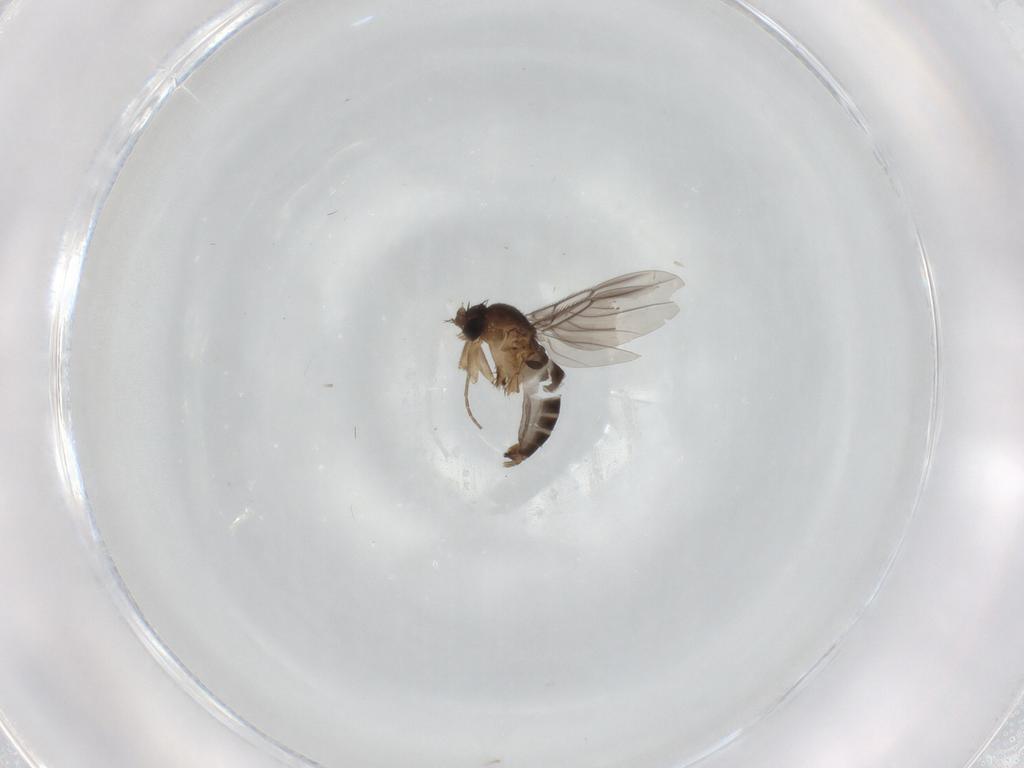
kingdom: Animalia
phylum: Arthropoda
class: Insecta
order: Diptera
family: Phoridae
